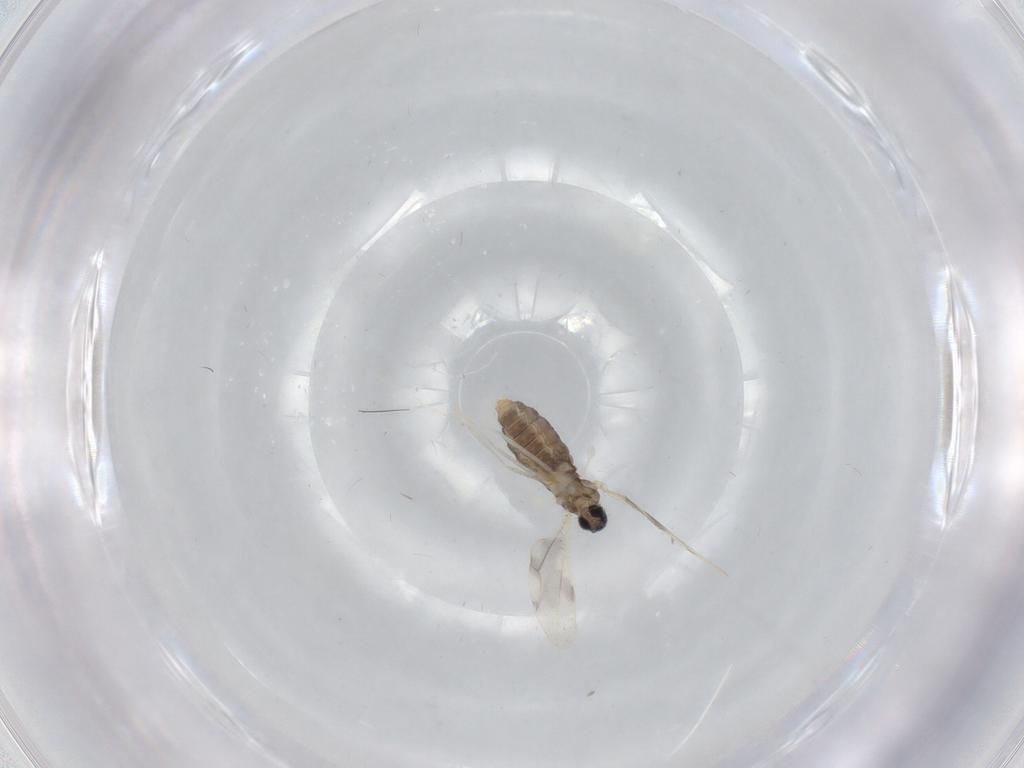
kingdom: Animalia
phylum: Arthropoda
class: Insecta
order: Diptera
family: Cecidomyiidae
